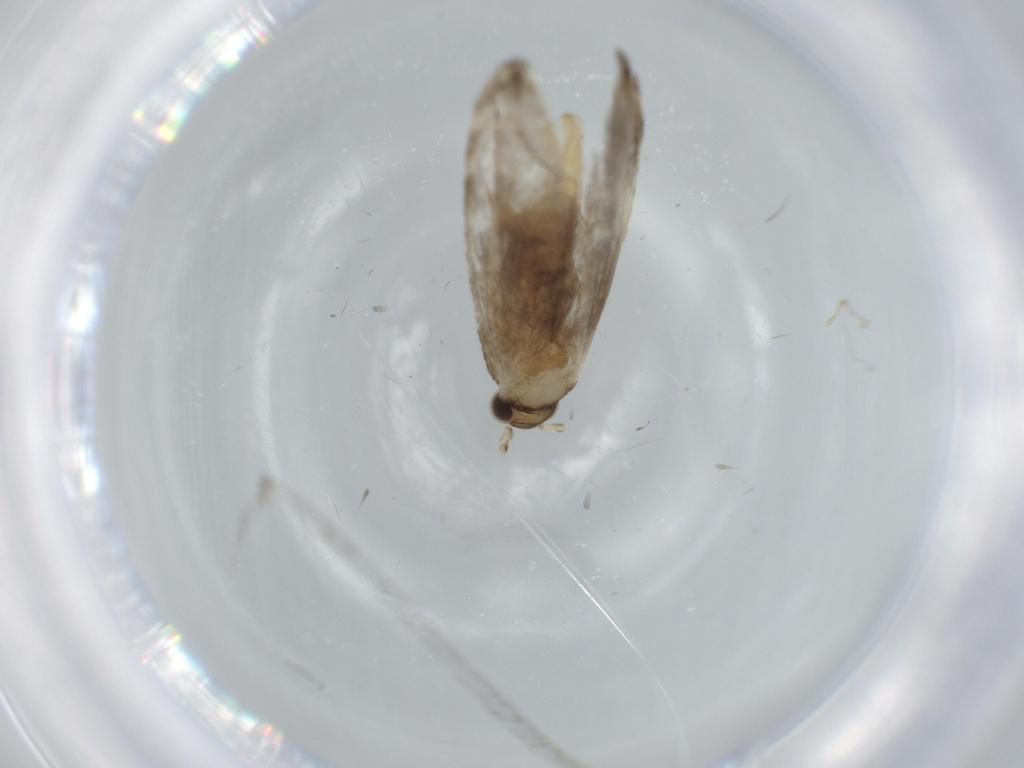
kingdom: Animalia
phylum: Arthropoda
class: Insecta
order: Lepidoptera
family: Tineidae
